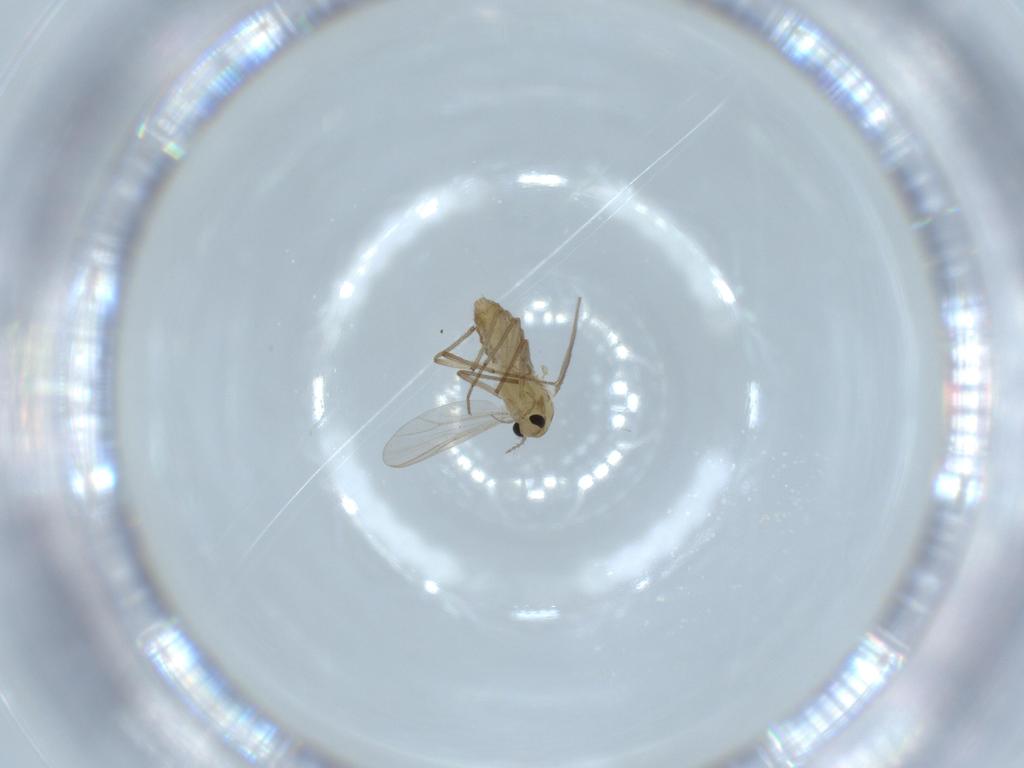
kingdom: Animalia
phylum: Arthropoda
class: Insecta
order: Diptera
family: Chironomidae
